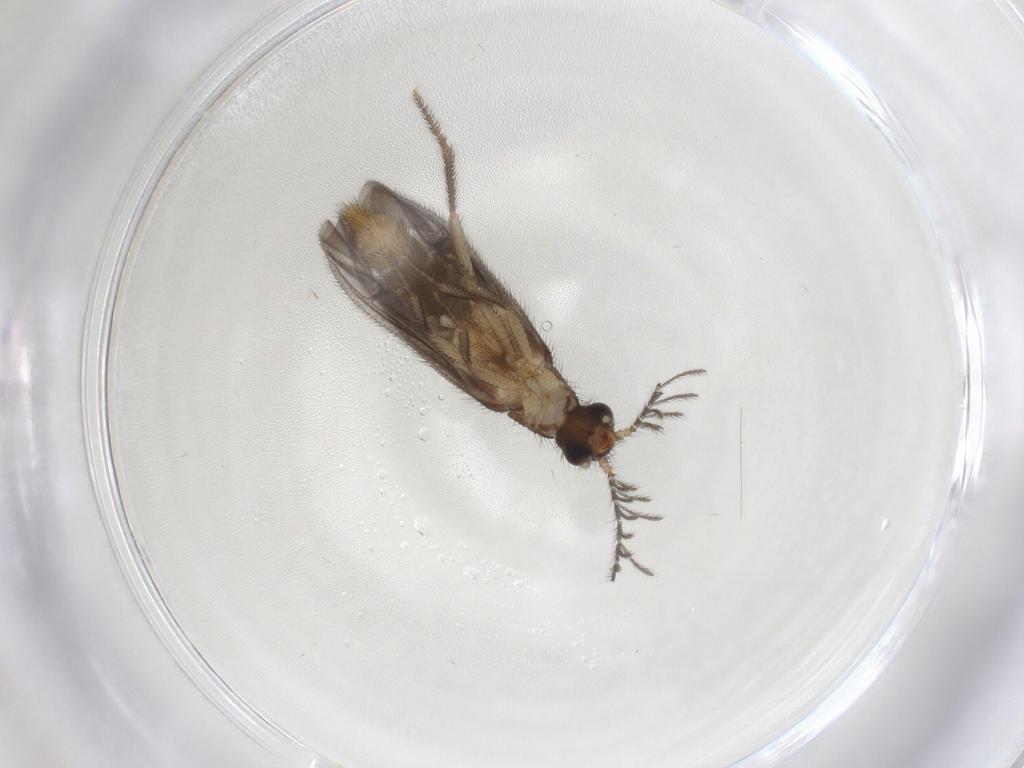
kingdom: Animalia
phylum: Arthropoda
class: Insecta
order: Coleoptera
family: Phengodidae
